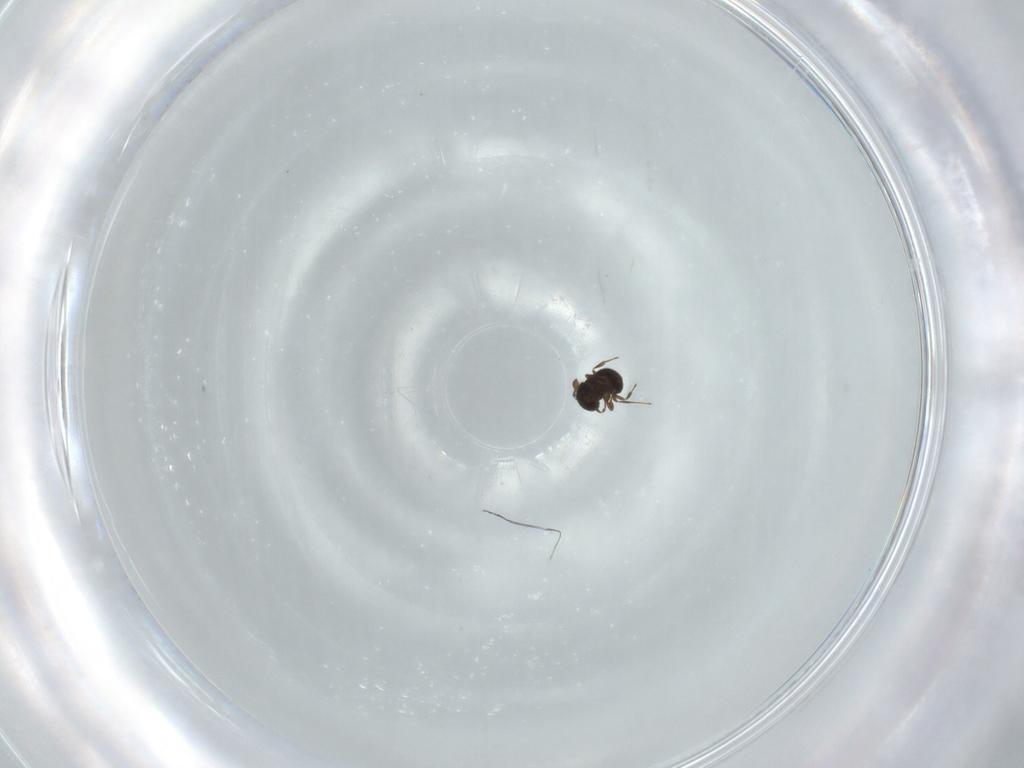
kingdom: Animalia
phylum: Arthropoda
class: Insecta
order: Hymenoptera
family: Scelionidae
